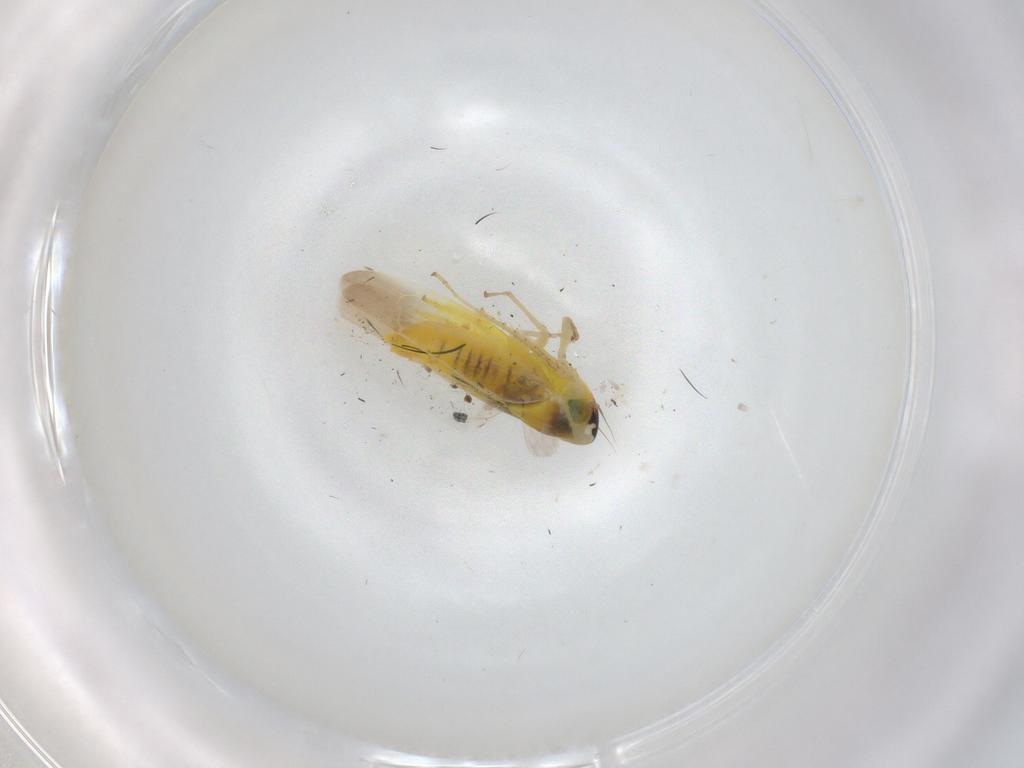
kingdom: Animalia
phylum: Arthropoda
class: Insecta
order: Hemiptera
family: Cicadellidae
